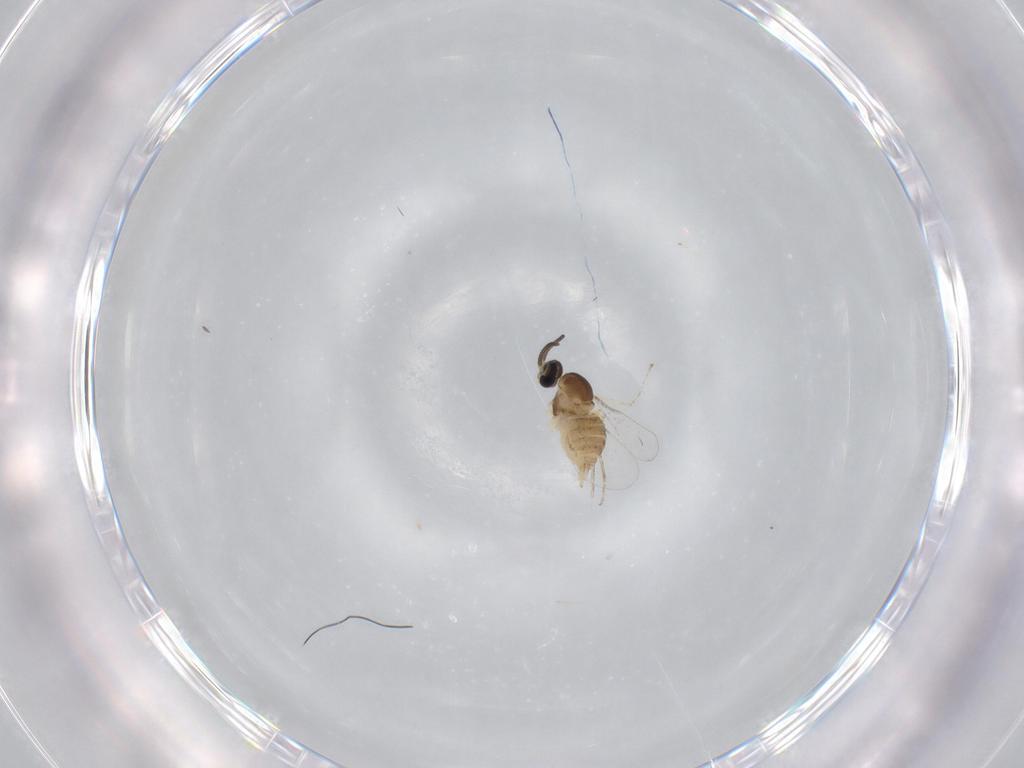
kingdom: Animalia
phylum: Arthropoda
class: Insecta
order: Diptera
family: Cecidomyiidae
